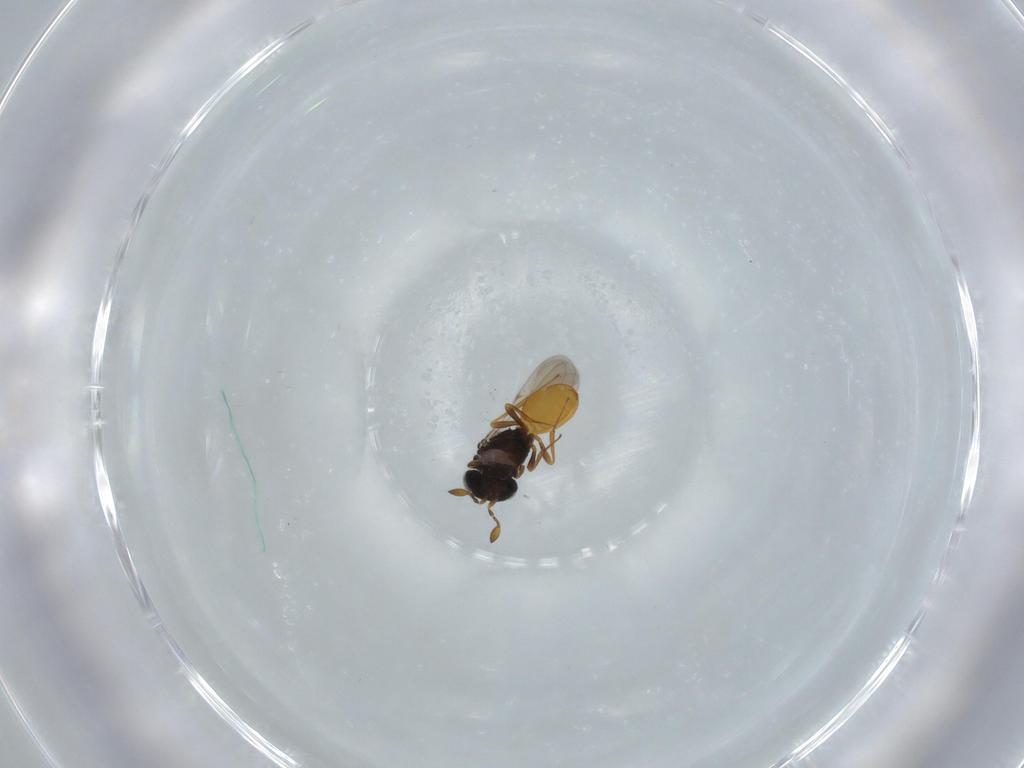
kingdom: Animalia
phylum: Arthropoda
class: Insecta
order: Hymenoptera
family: Scelionidae
